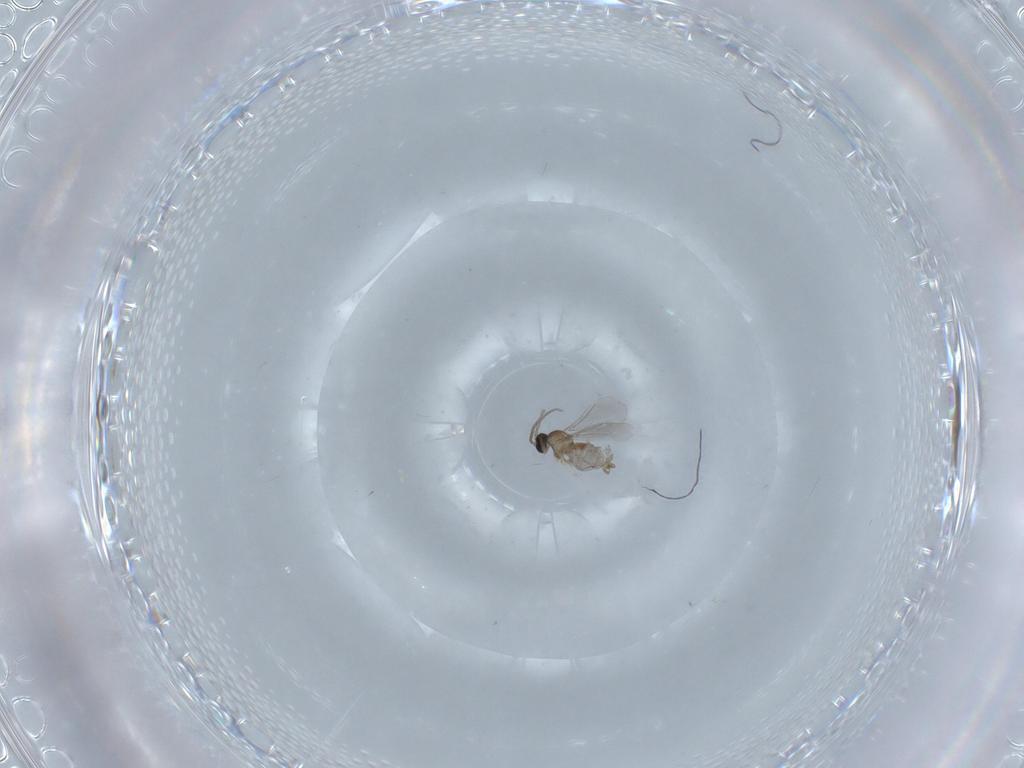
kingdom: Animalia
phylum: Arthropoda
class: Insecta
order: Diptera
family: Cecidomyiidae
